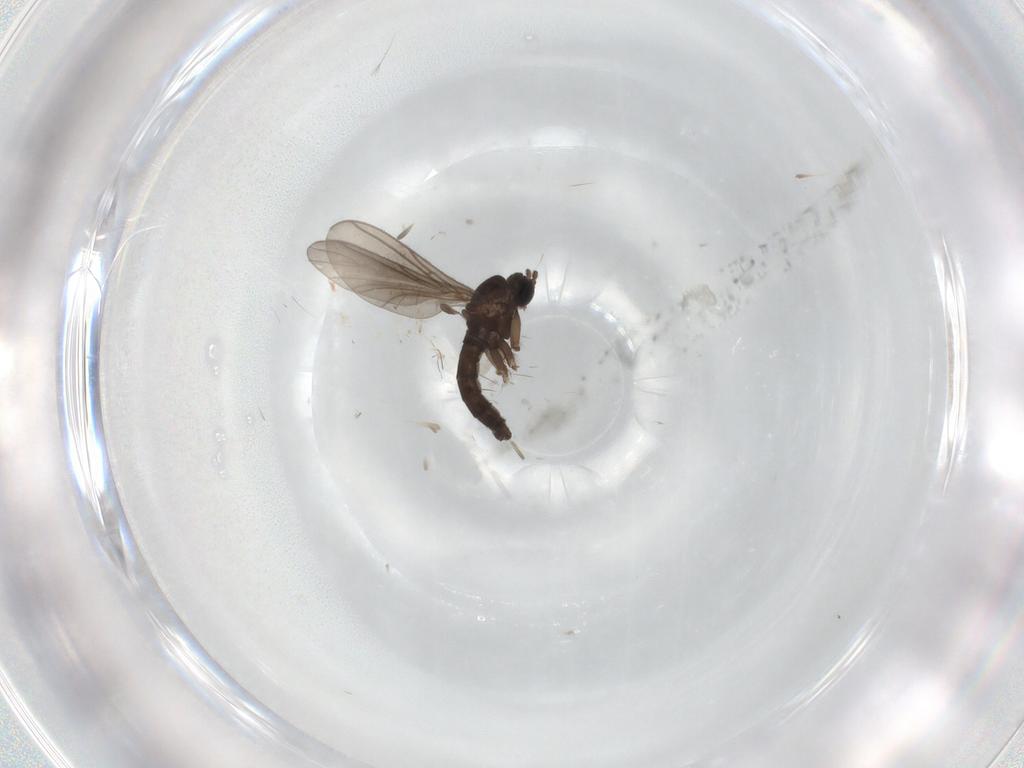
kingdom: Animalia
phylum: Arthropoda
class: Insecta
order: Diptera
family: Sciaridae
